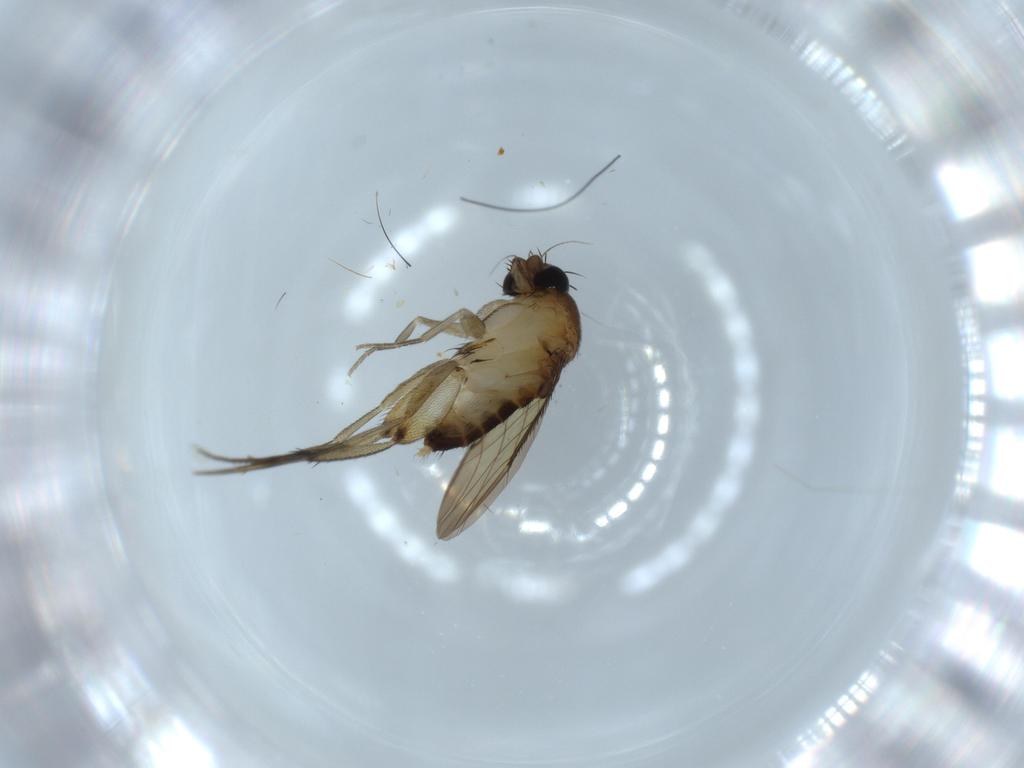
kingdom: Animalia
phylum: Arthropoda
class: Insecta
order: Diptera
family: Phoridae
